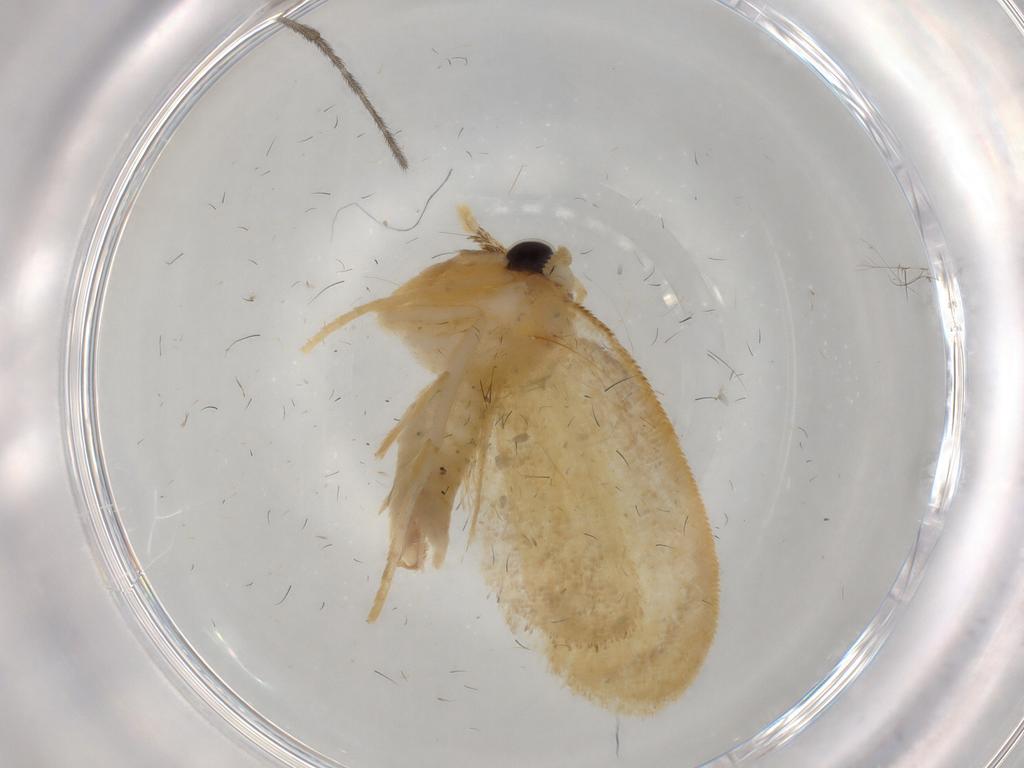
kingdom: Animalia
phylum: Arthropoda
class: Insecta
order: Lepidoptera
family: Psychidae
